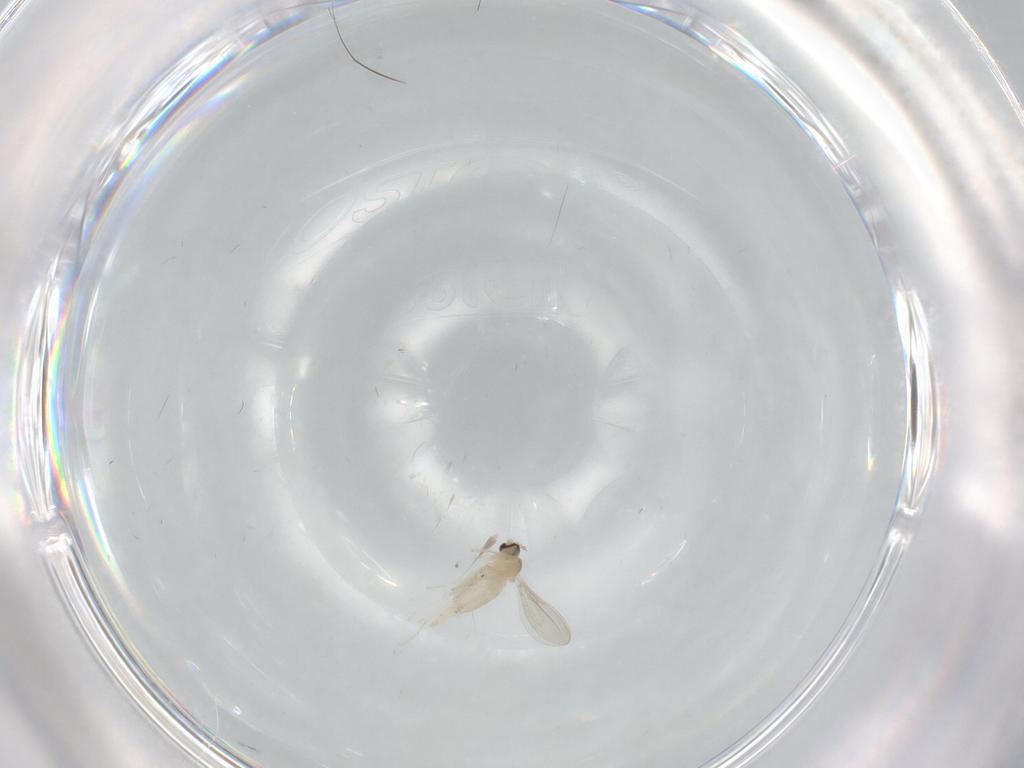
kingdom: Animalia
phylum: Arthropoda
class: Insecta
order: Diptera
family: Cecidomyiidae
